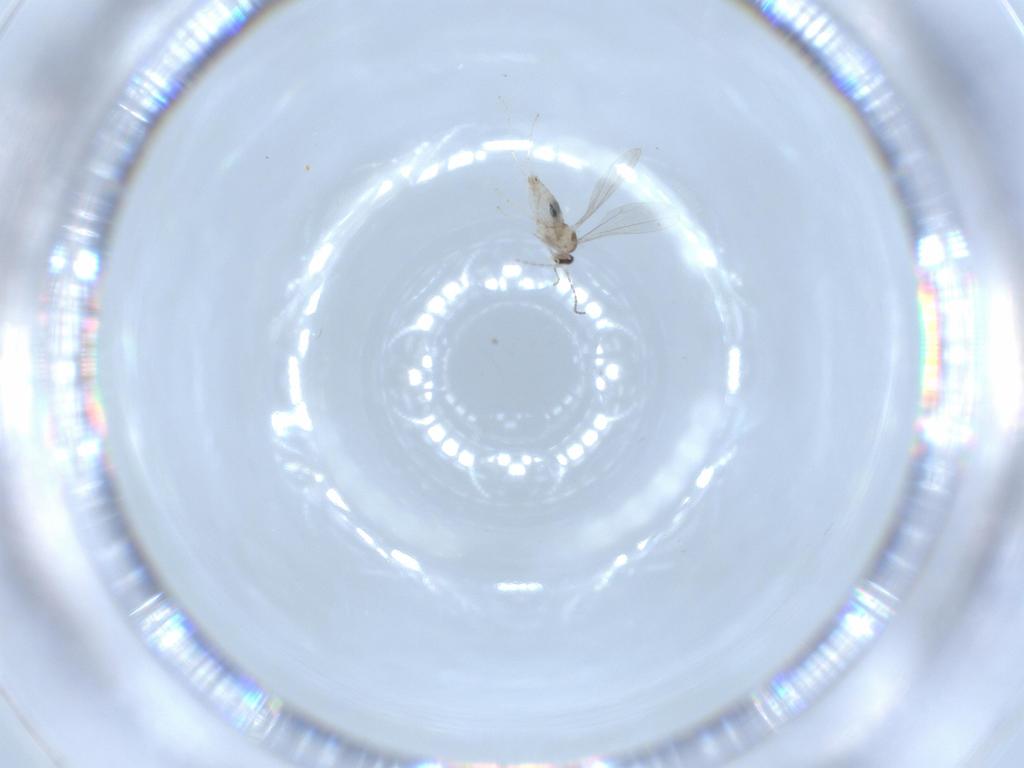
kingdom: Animalia
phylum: Arthropoda
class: Insecta
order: Diptera
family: Cecidomyiidae
